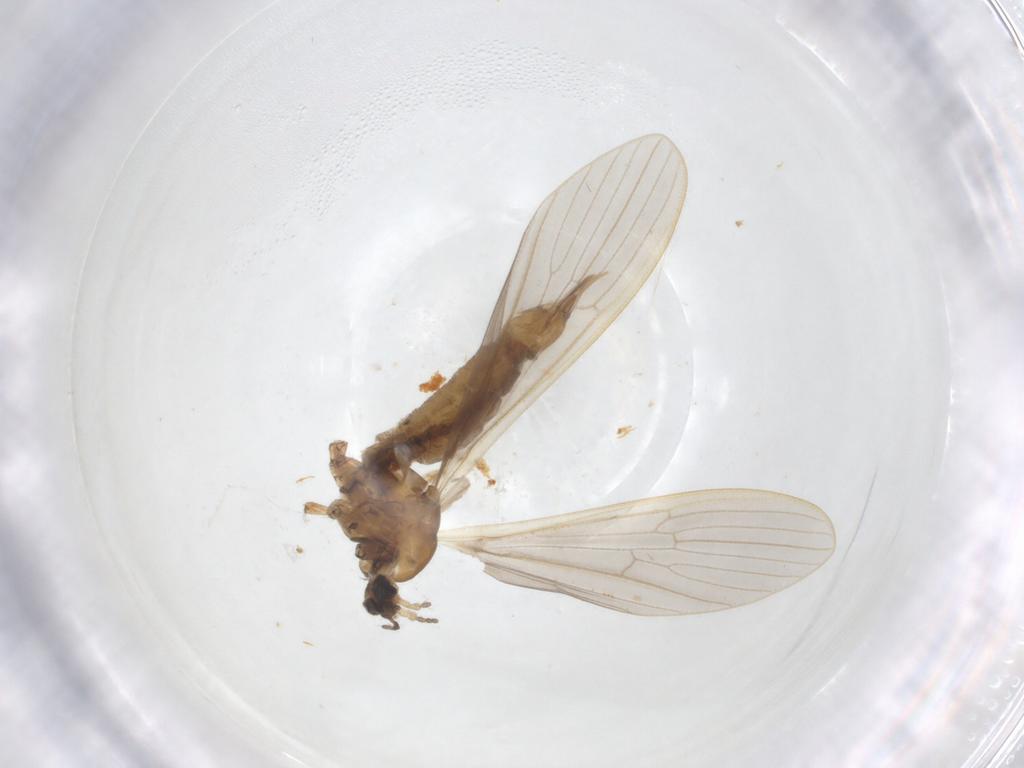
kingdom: Animalia
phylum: Arthropoda
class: Insecta
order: Diptera
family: Limoniidae
